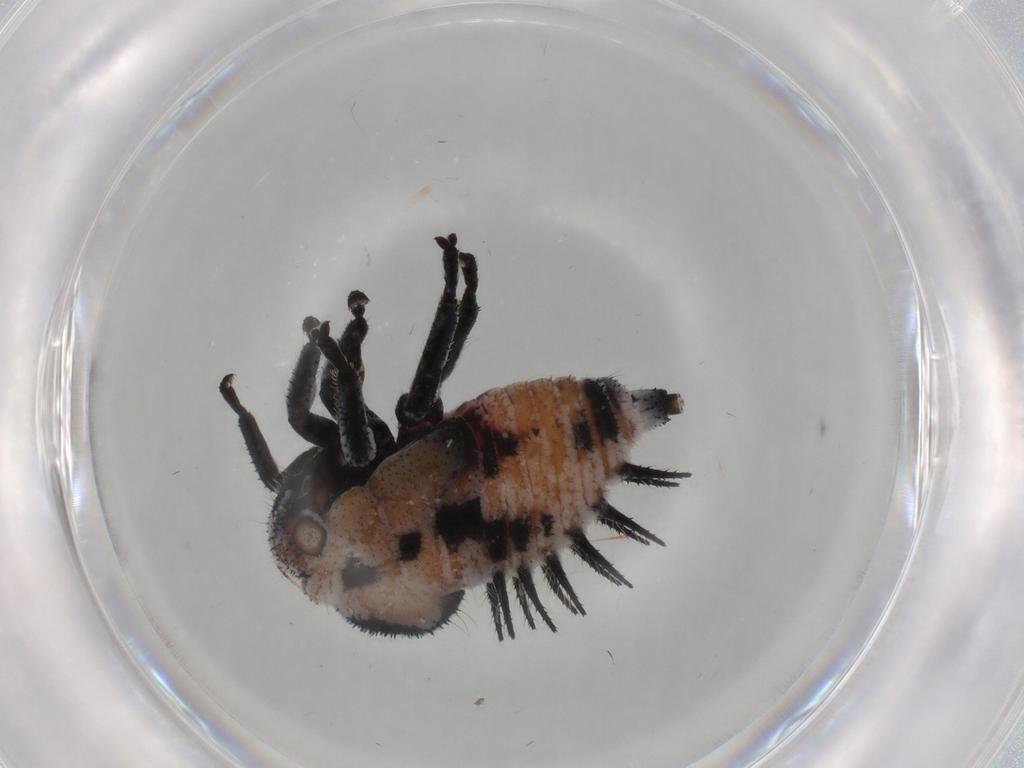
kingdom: Animalia
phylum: Arthropoda
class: Insecta
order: Hemiptera
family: Membracidae
